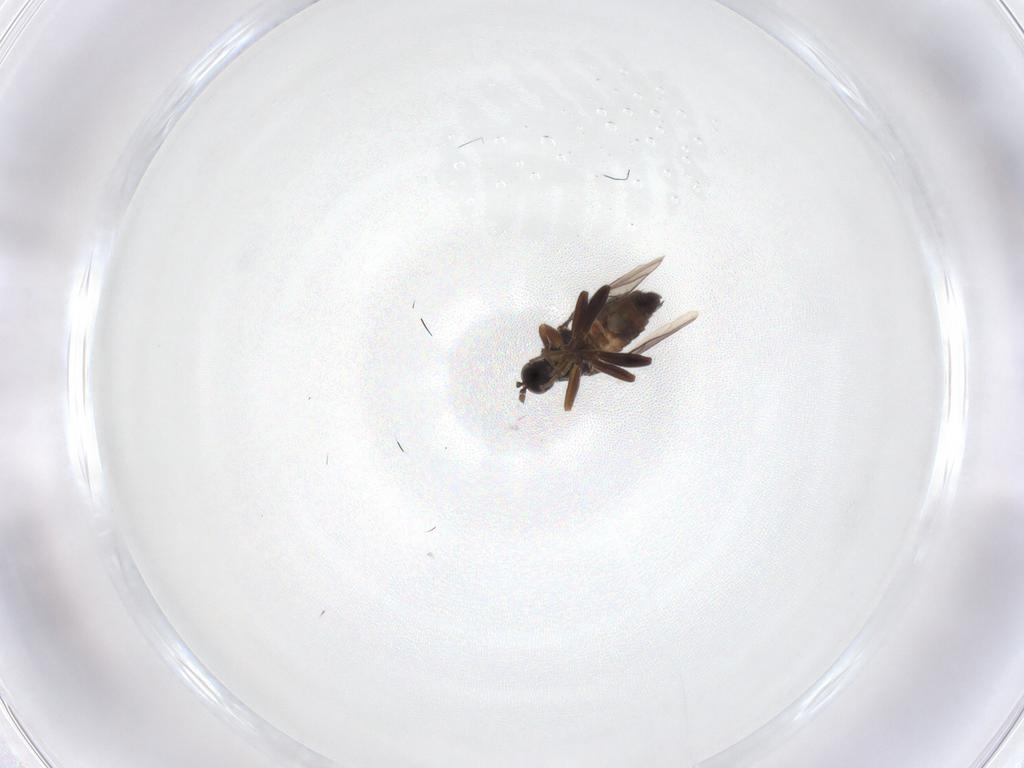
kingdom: Animalia
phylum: Arthropoda
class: Insecta
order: Diptera
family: Hybotidae
